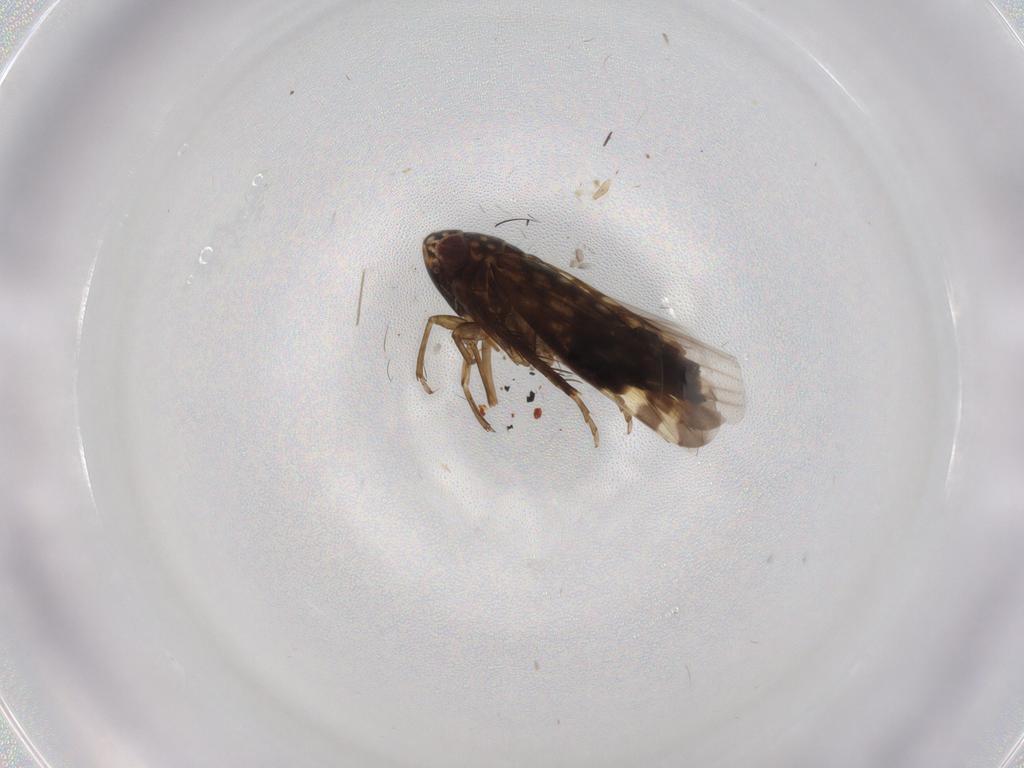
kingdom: Animalia
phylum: Arthropoda
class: Insecta
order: Hemiptera
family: Cicadellidae
